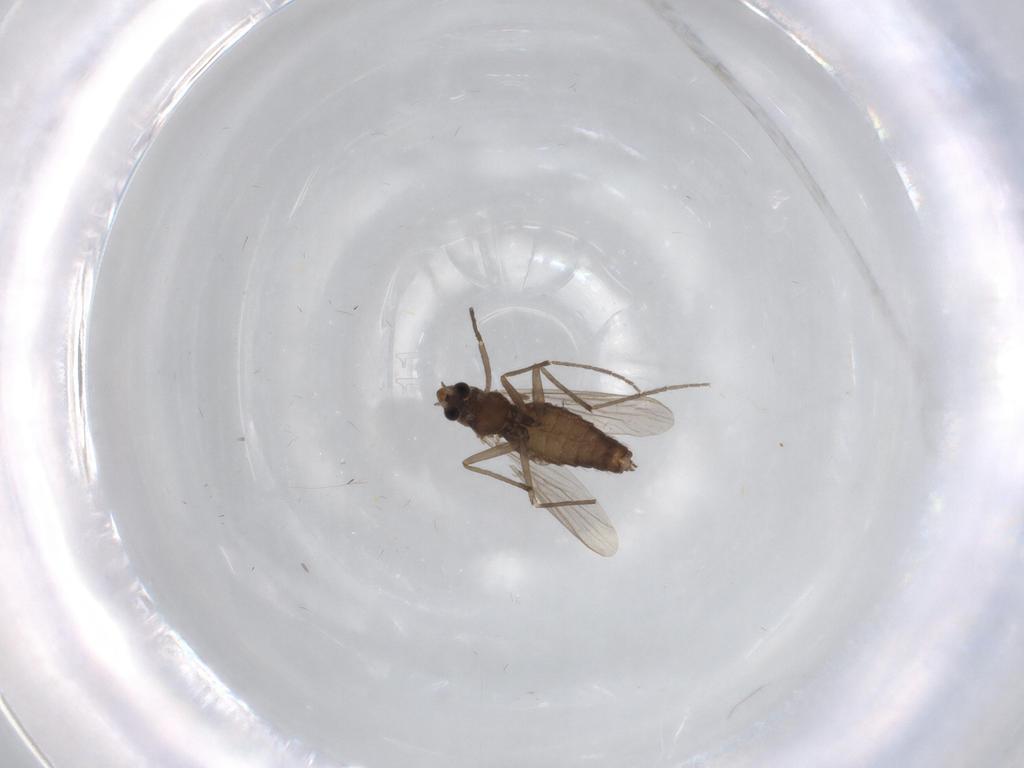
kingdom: Animalia
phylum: Arthropoda
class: Insecta
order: Diptera
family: Chironomidae
